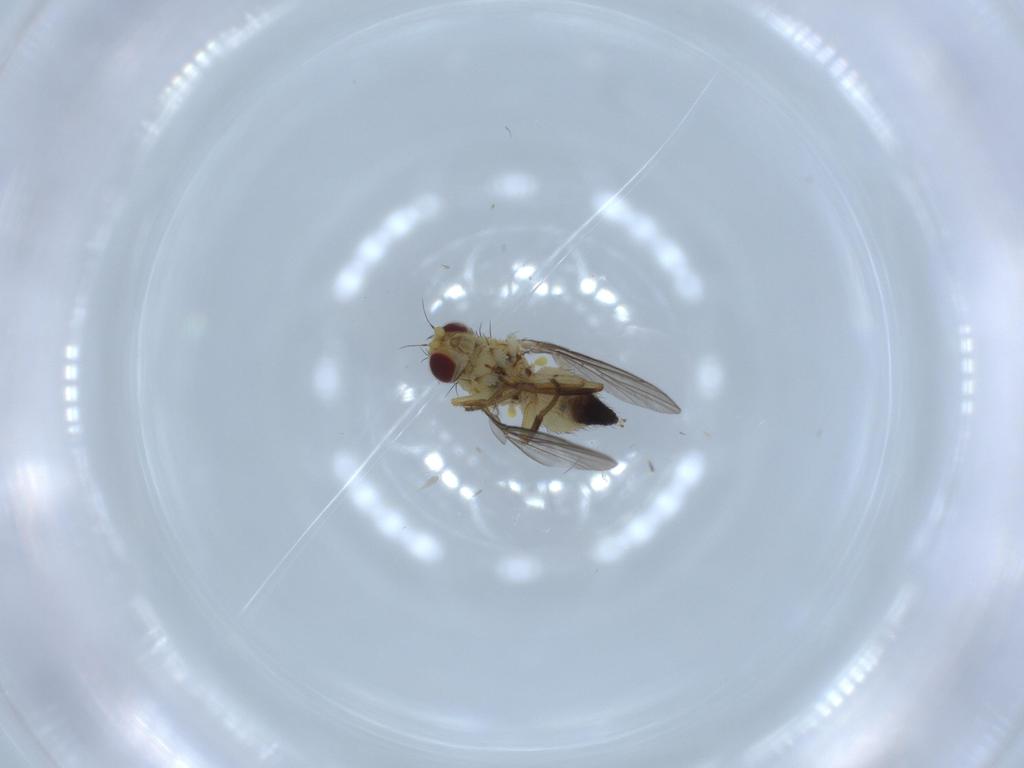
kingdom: Animalia
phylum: Arthropoda
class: Insecta
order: Diptera
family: Agromyzidae
